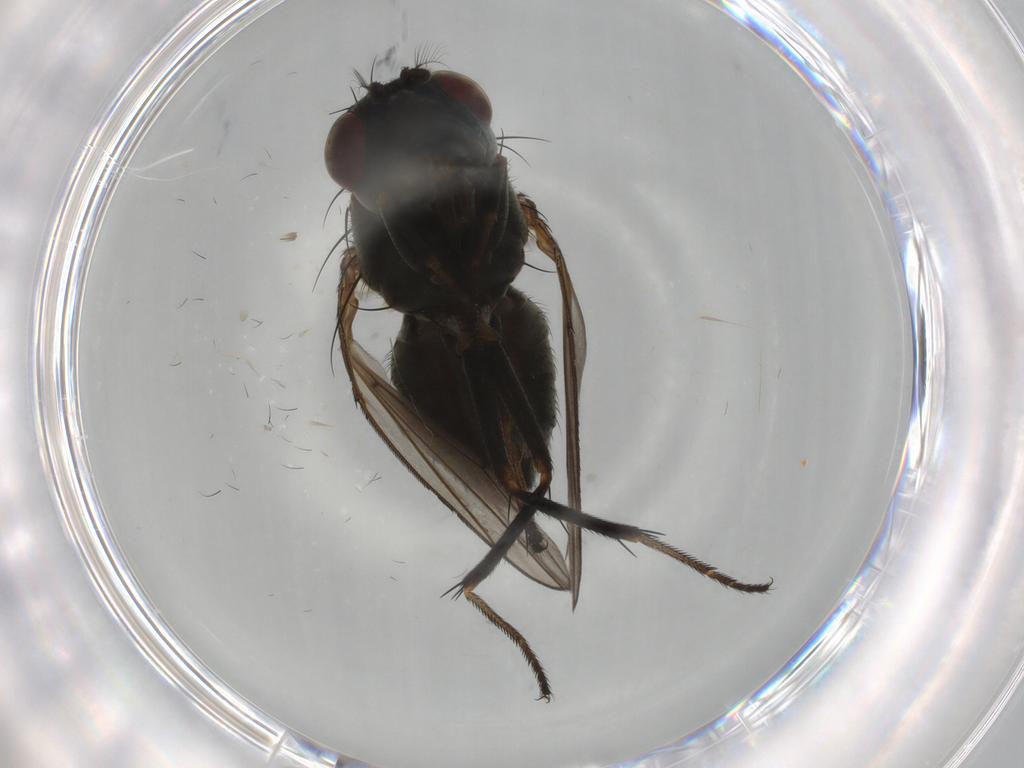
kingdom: Animalia
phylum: Arthropoda
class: Insecta
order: Diptera
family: Ephydridae
